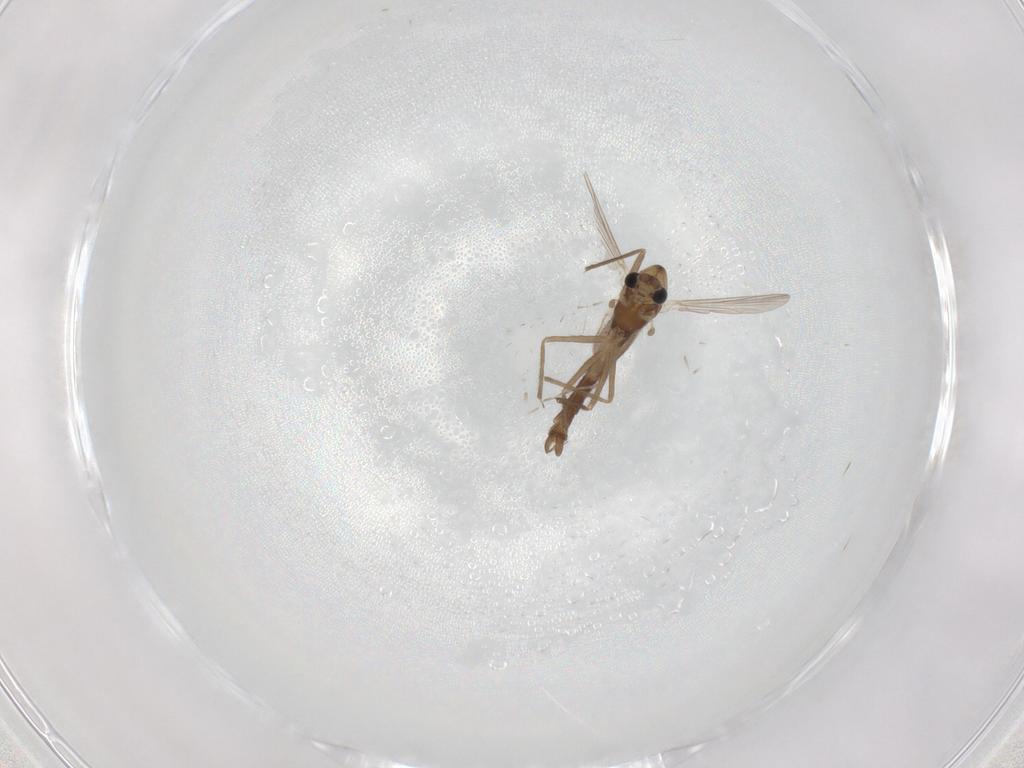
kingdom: Animalia
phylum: Arthropoda
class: Insecta
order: Diptera
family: Chironomidae
